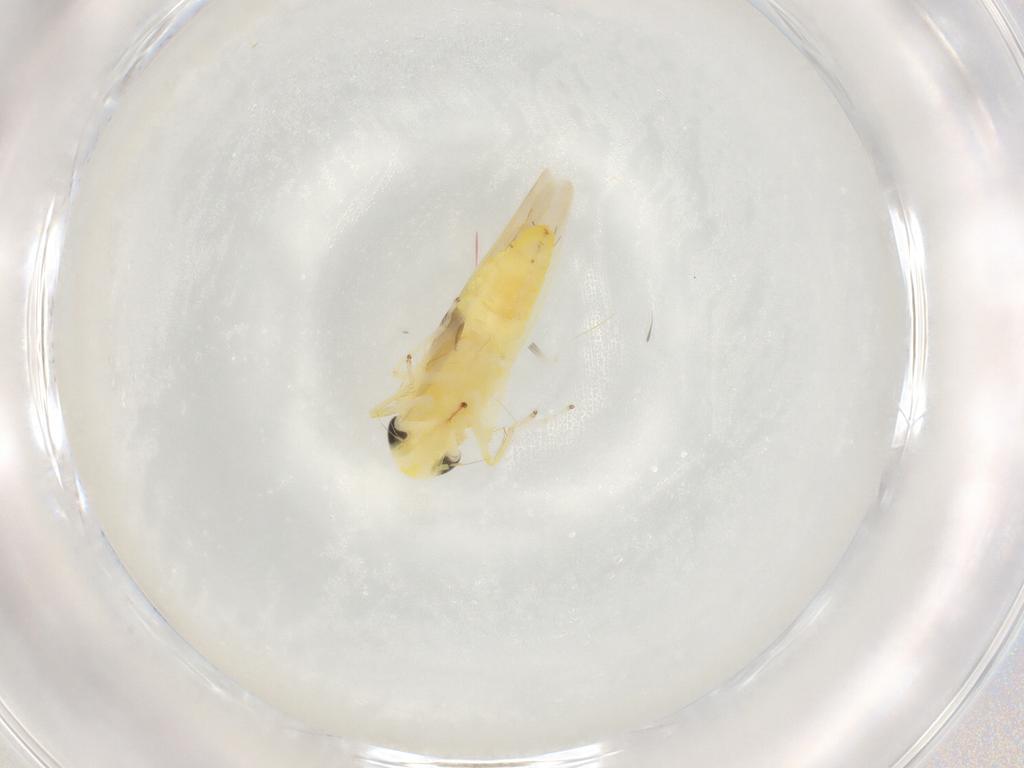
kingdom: Animalia
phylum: Arthropoda
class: Insecta
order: Hemiptera
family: Cicadellidae
